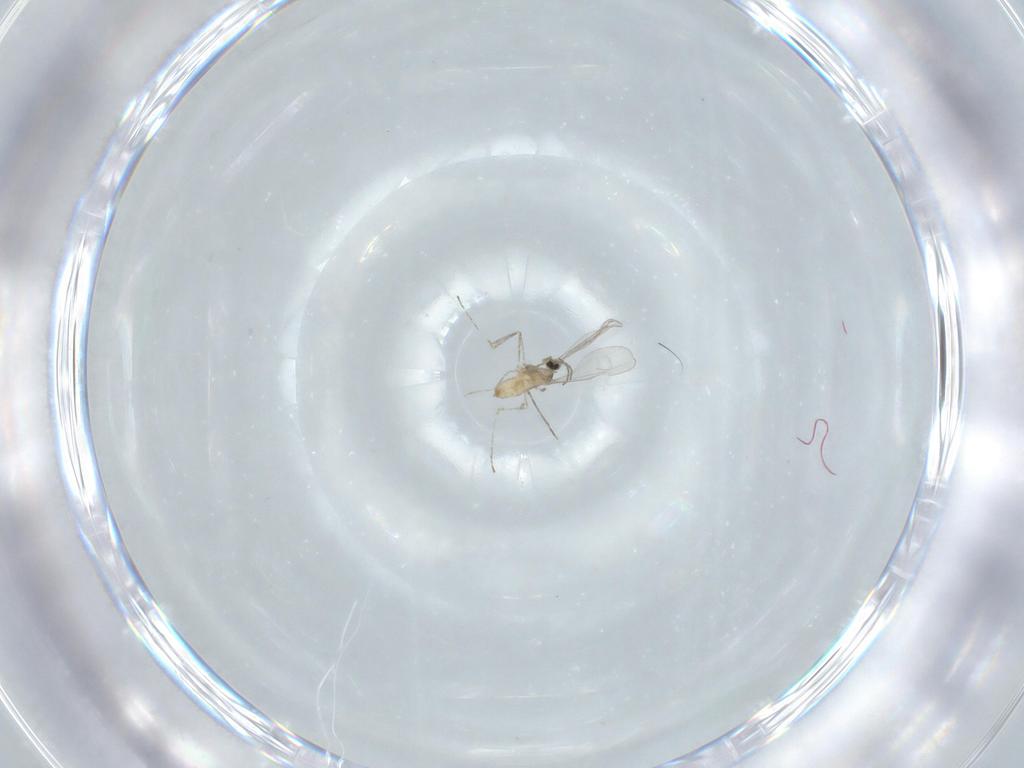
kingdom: Animalia
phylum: Arthropoda
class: Insecta
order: Diptera
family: Cecidomyiidae
